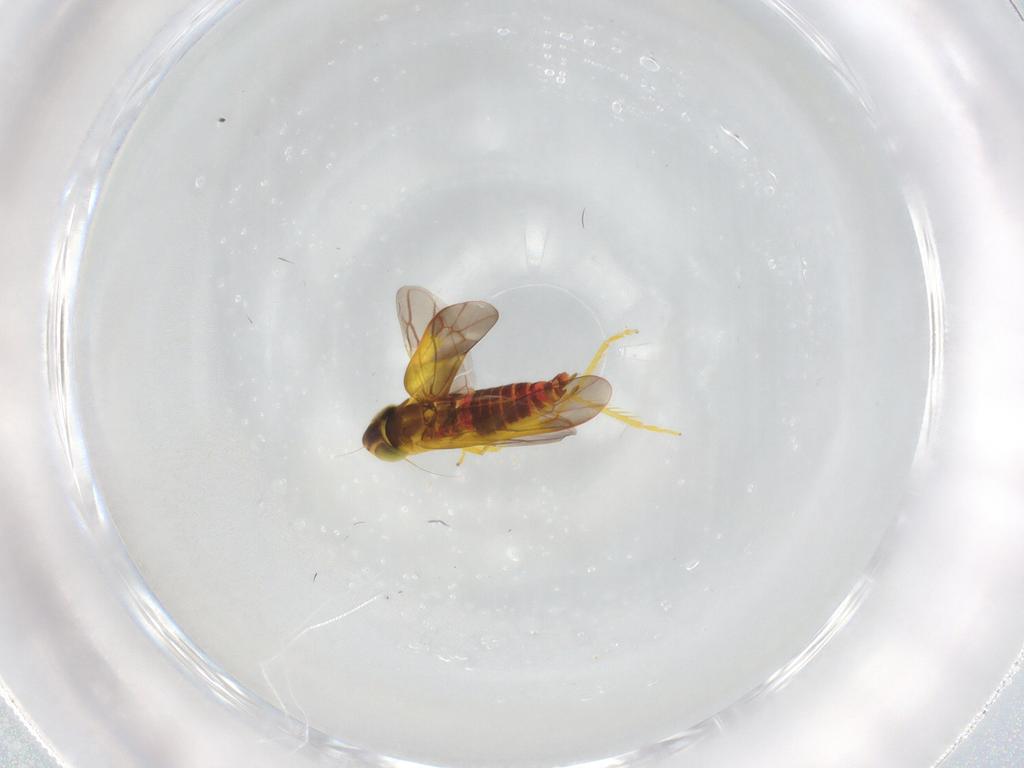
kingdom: Animalia
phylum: Arthropoda
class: Insecta
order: Hemiptera
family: Cicadellidae
